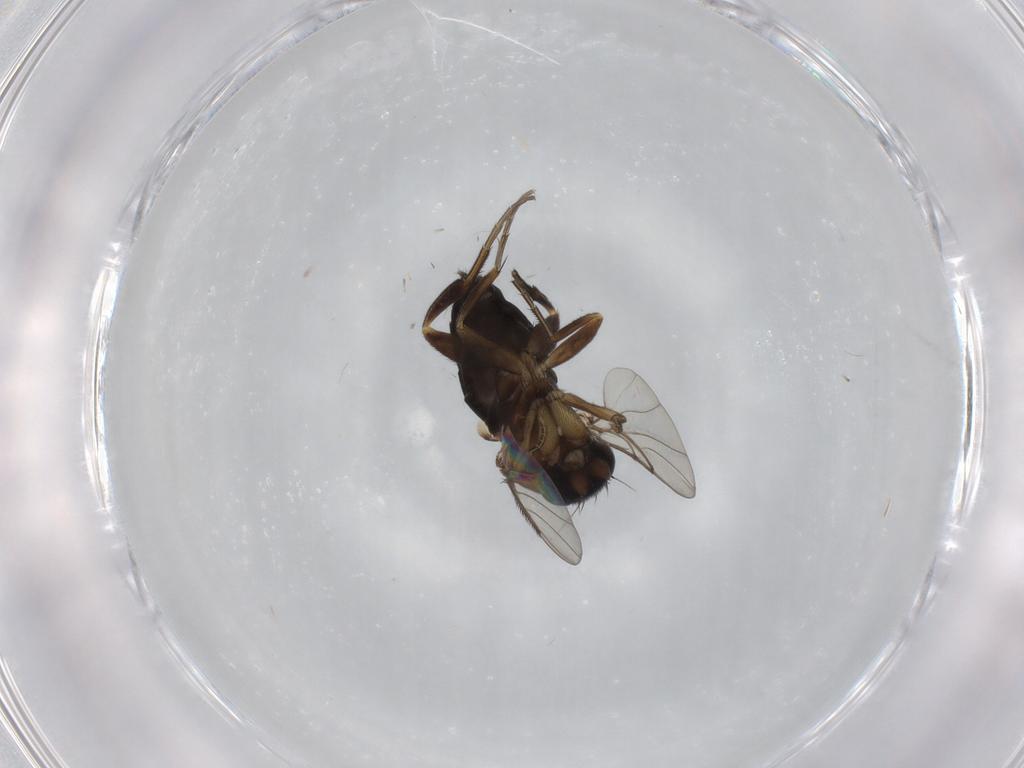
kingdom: Animalia
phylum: Arthropoda
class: Insecta
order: Diptera
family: Phoridae
